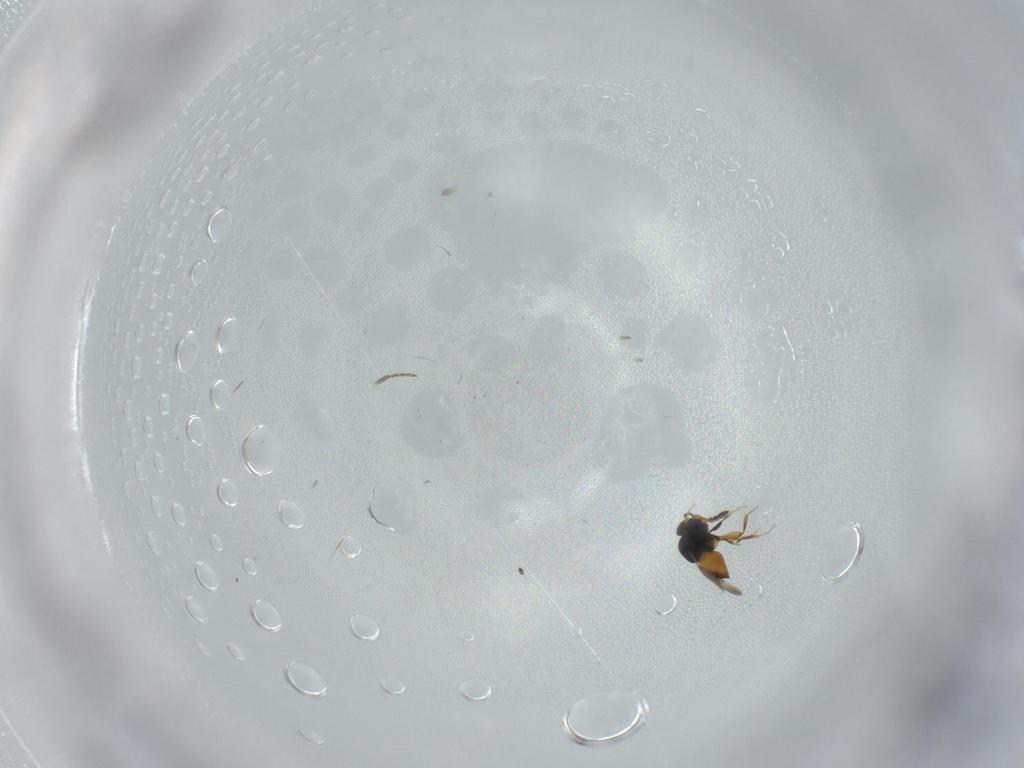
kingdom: Animalia
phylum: Arthropoda
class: Insecta
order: Hymenoptera
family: Diapriidae
